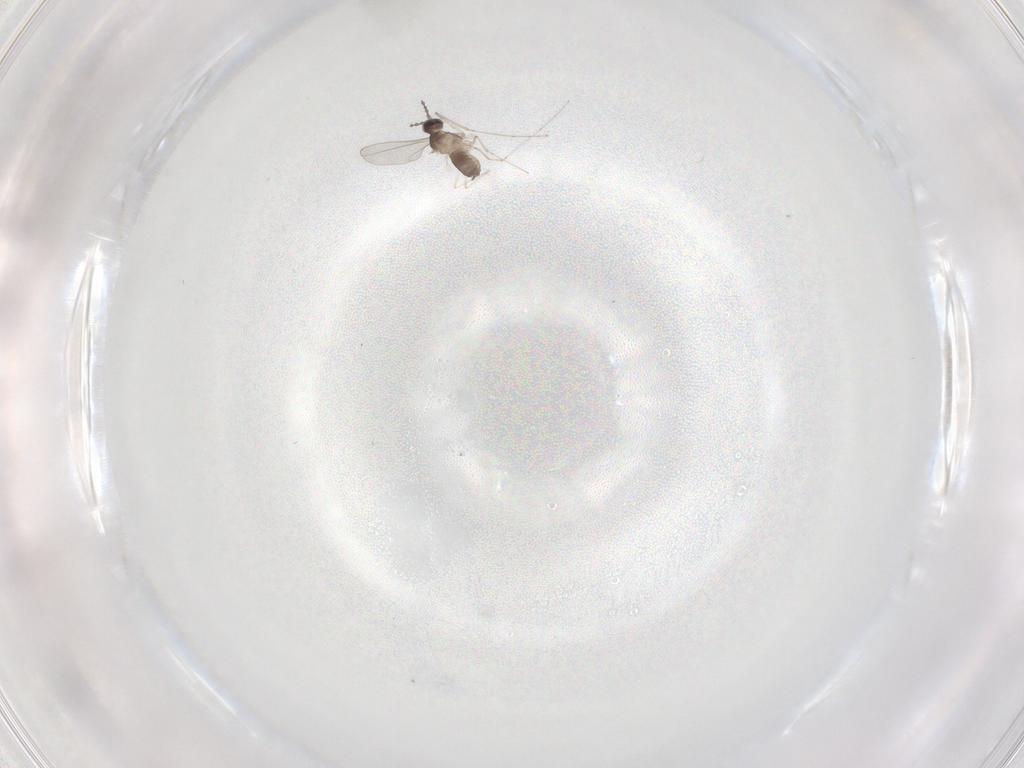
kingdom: Animalia
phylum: Arthropoda
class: Insecta
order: Diptera
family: Cecidomyiidae
